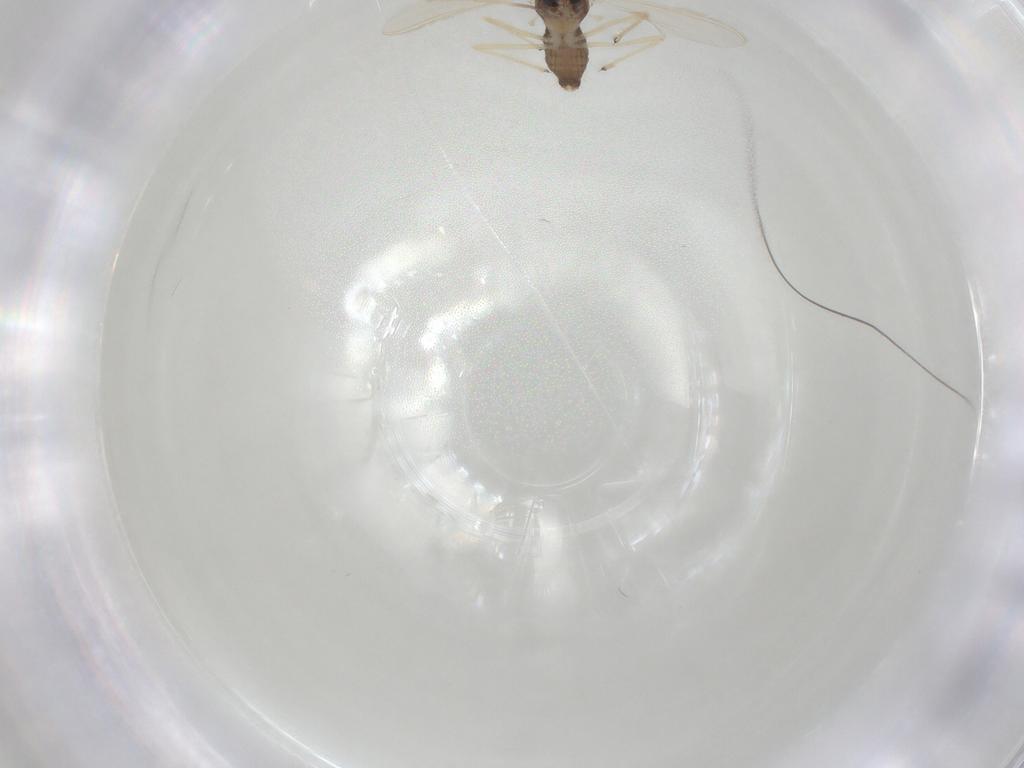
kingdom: Animalia
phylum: Arthropoda
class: Insecta
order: Diptera
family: Chironomidae
